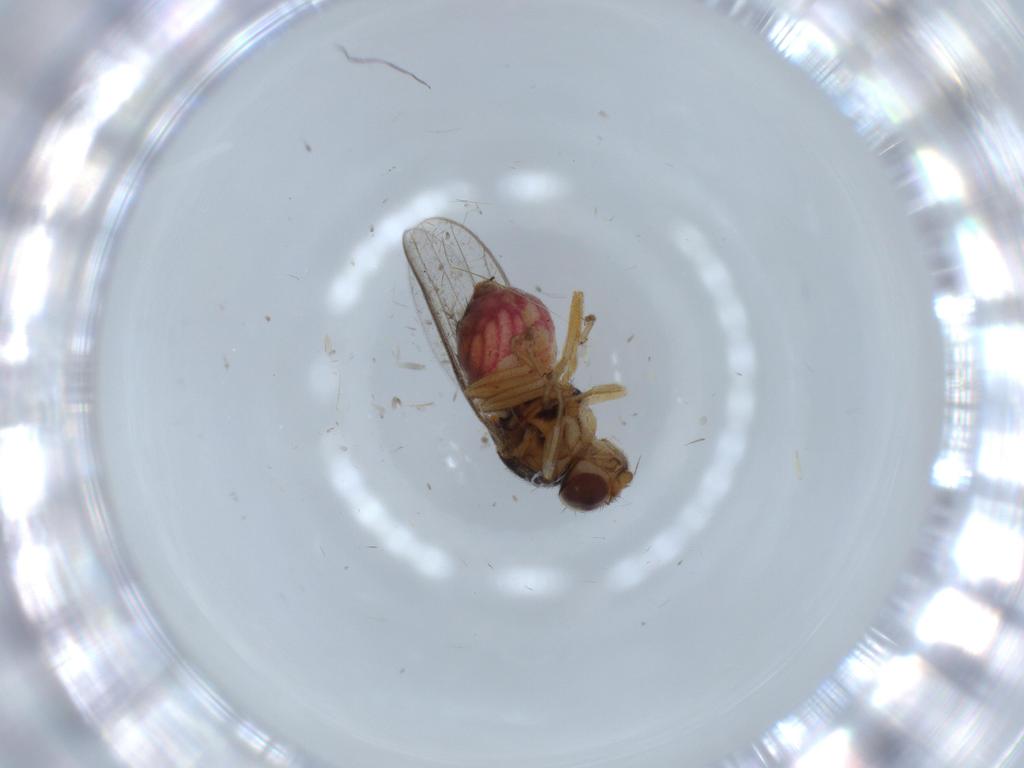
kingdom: Animalia
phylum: Arthropoda
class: Insecta
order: Diptera
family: Chloropidae
